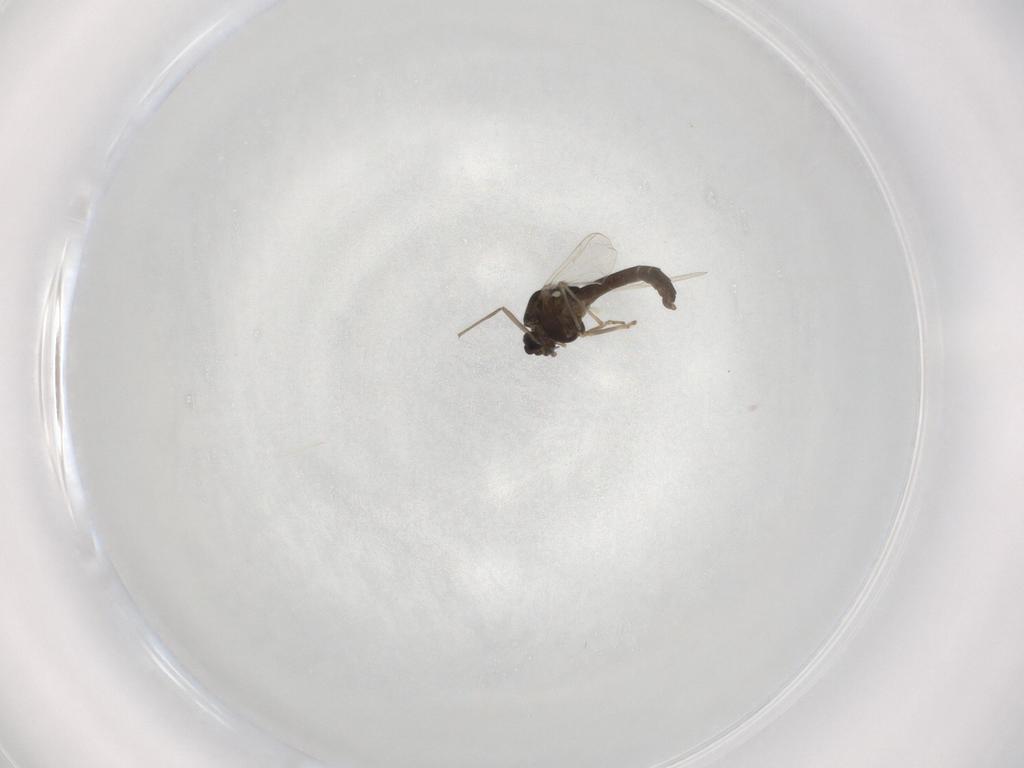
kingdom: Animalia
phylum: Arthropoda
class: Insecta
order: Diptera
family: Chironomidae
